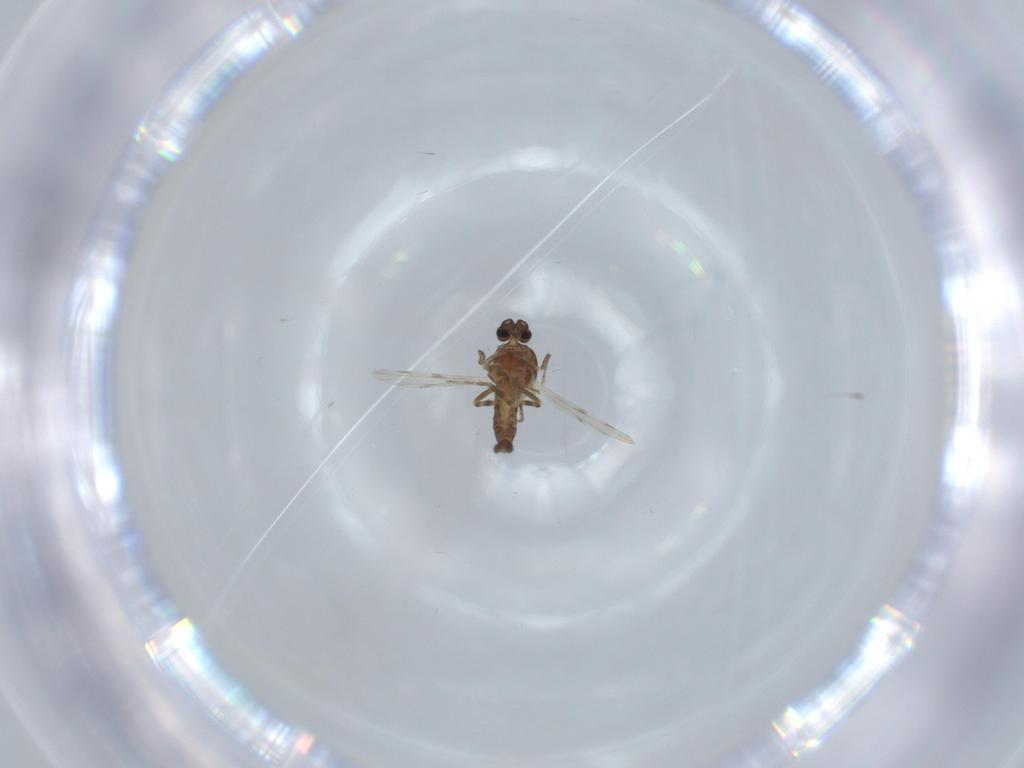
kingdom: Animalia
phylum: Arthropoda
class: Insecta
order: Diptera
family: Ceratopogonidae
